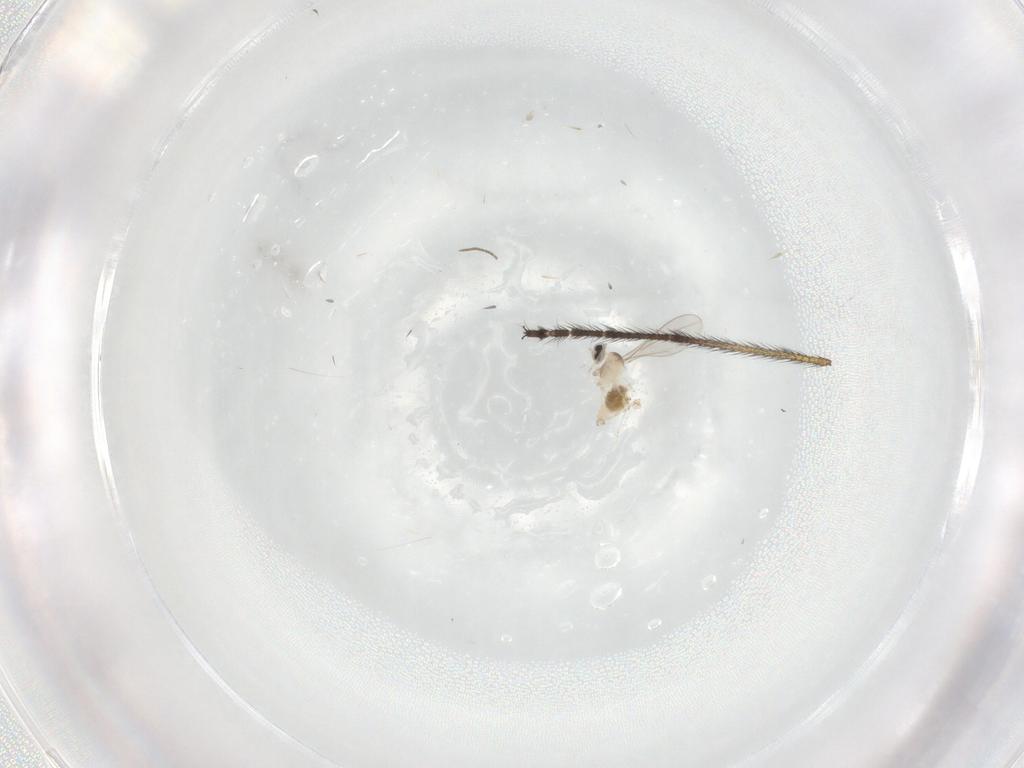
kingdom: Animalia
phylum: Arthropoda
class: Insecta
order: Diptera
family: Cecidomyiidae
